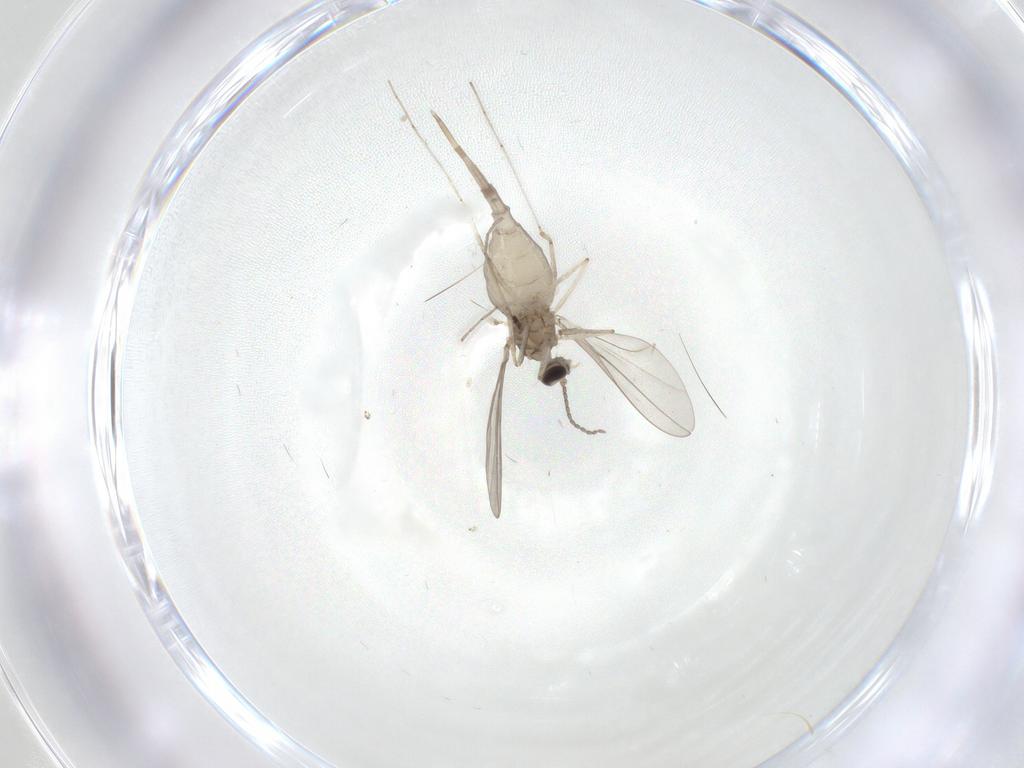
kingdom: Animalia
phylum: Arthropoda
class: Insecta
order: Diptera
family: Cecidomyiidae
